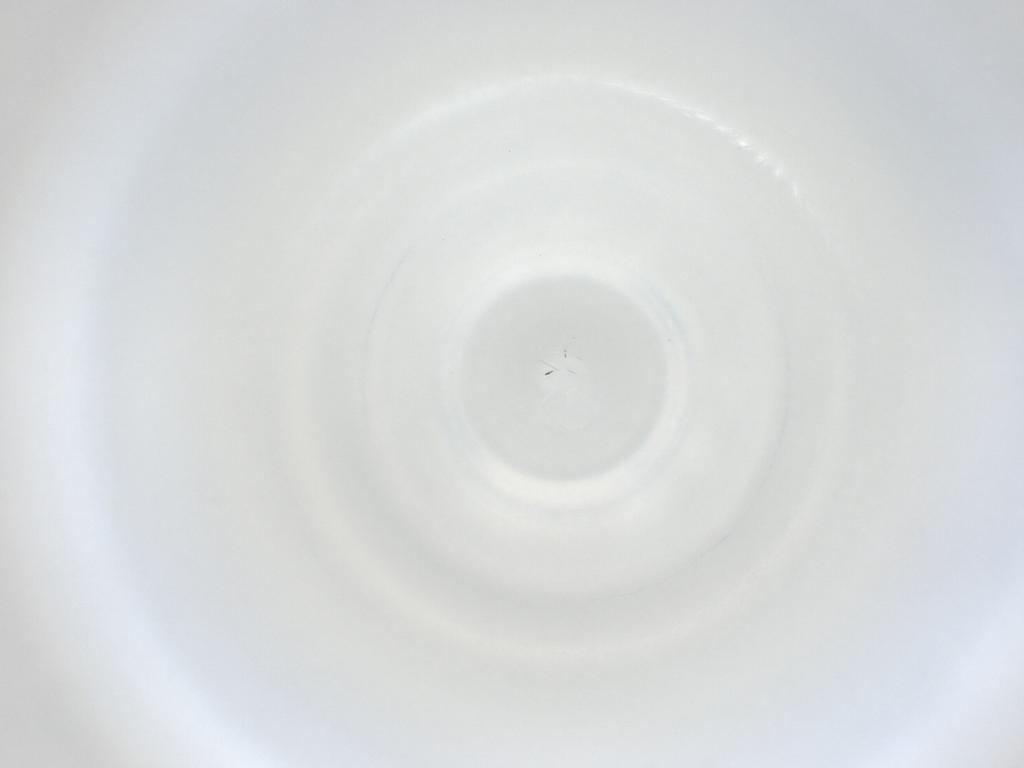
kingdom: Animalia
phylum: Arthropoda
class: Insecta
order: Diptera
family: Cecidomyiidae
